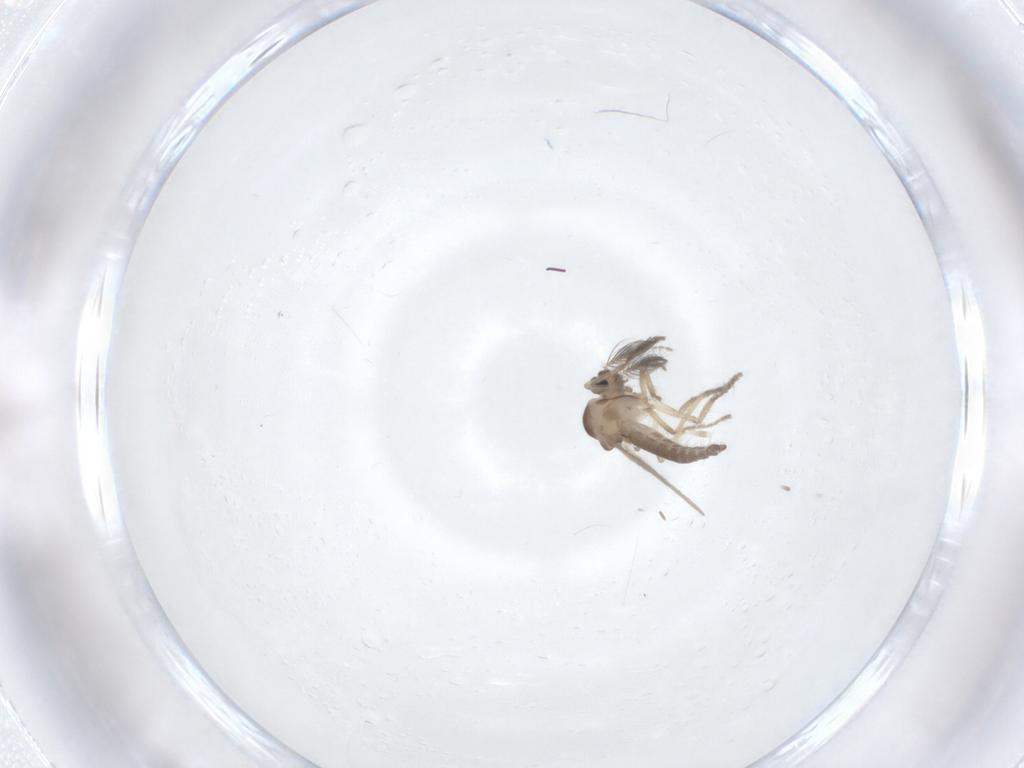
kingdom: Animalia
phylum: Arthropoda
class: Insecta
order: Diptera
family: Ceratopogonidae
